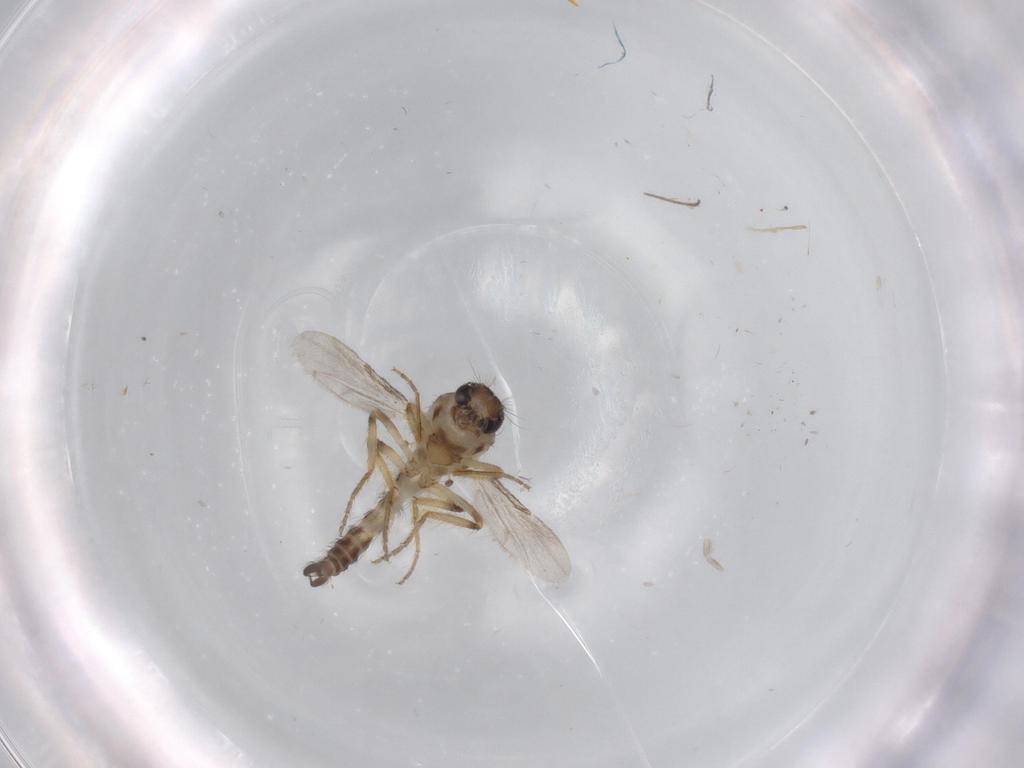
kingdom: Animalia
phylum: Arthropoda
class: Insecta
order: Diptera
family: Ceratopogonidae
